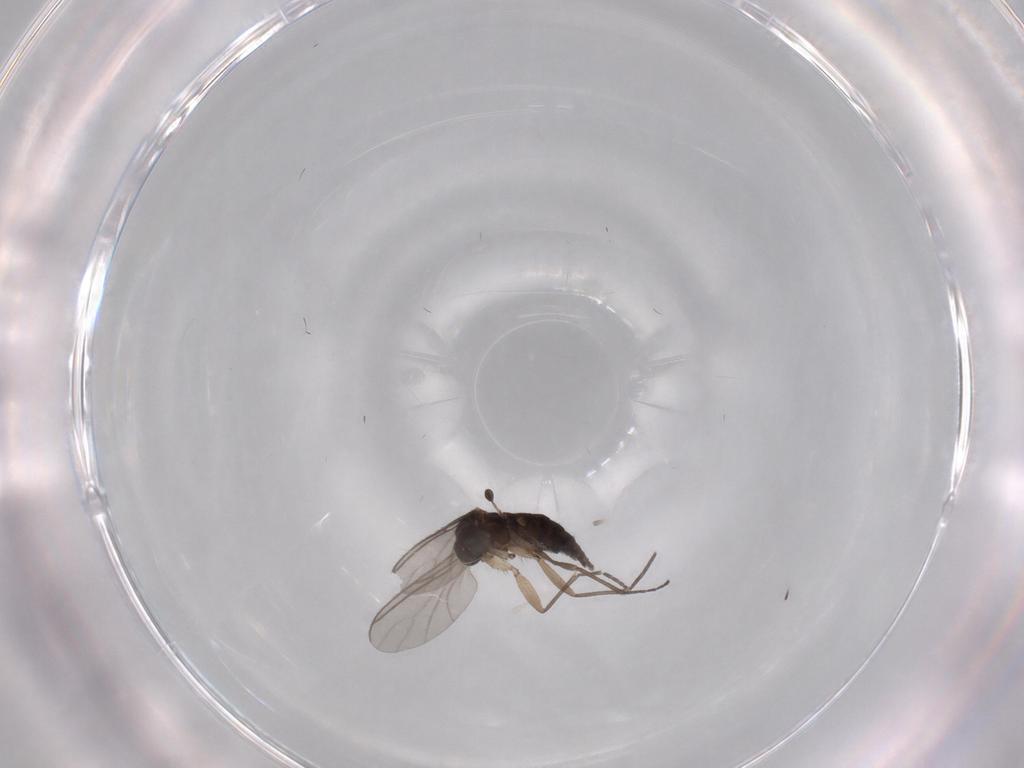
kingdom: Animalia
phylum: Arthropoda
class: Insecta
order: Diptera
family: Sciaridae
